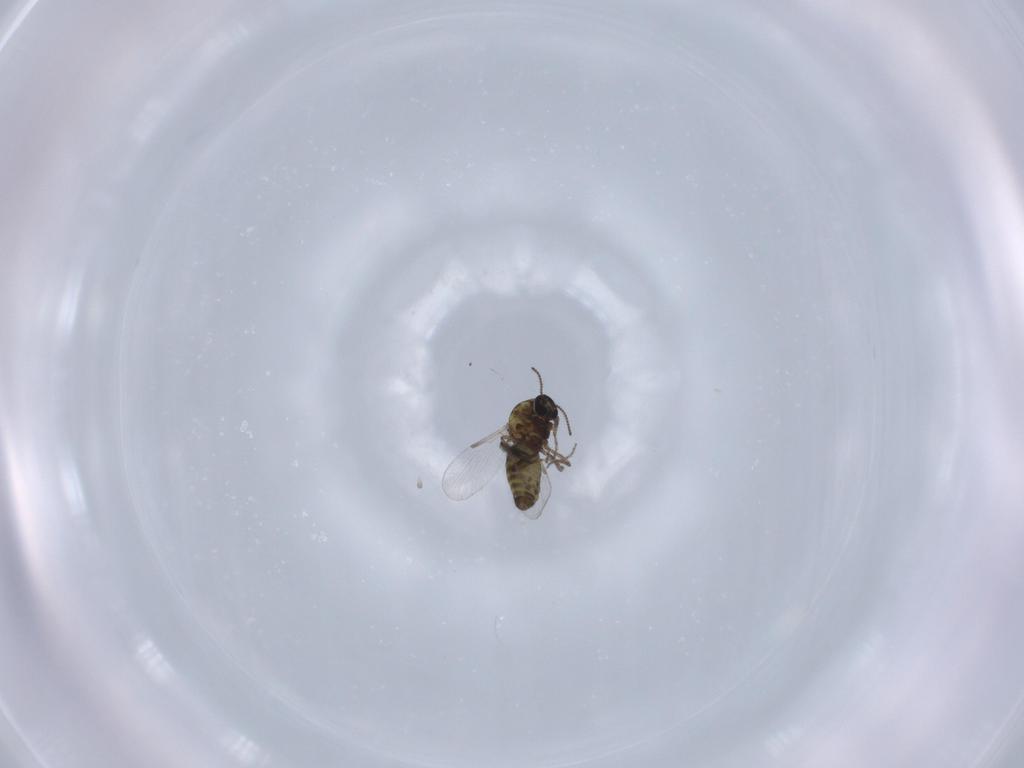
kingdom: Animalia
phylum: Arthropoda
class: Insecta
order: Diptera
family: Ceratopogonidae
